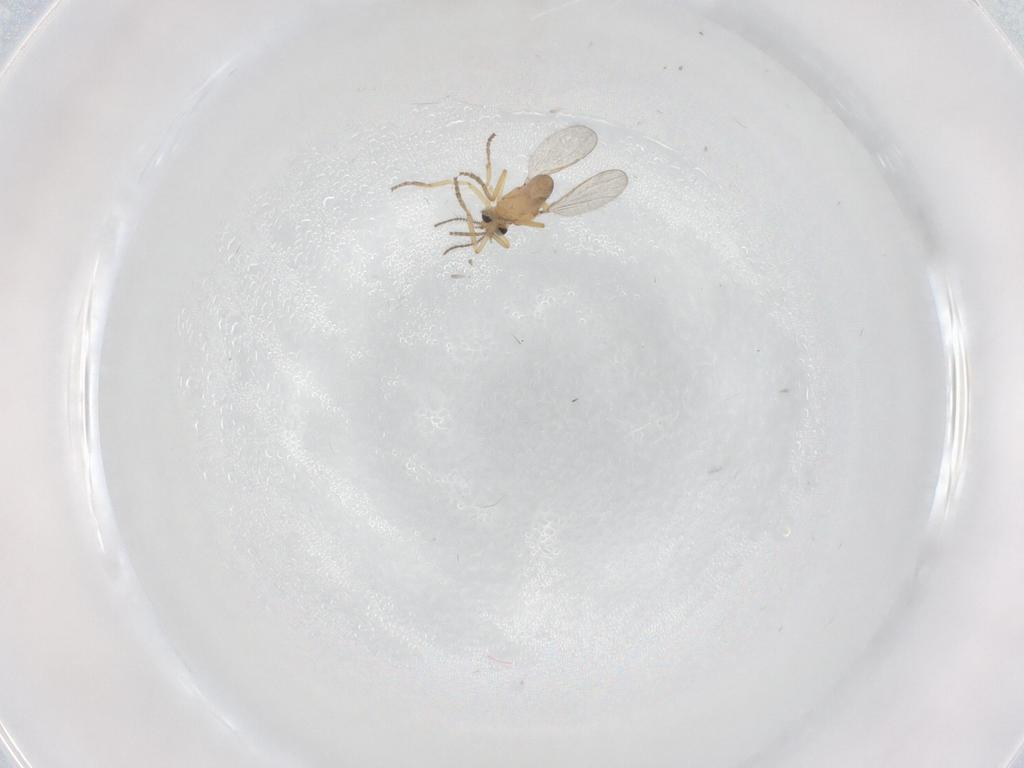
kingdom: Animalia
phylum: Arthropoda
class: Insecta
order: Diptera
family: Ceratopogonidae
